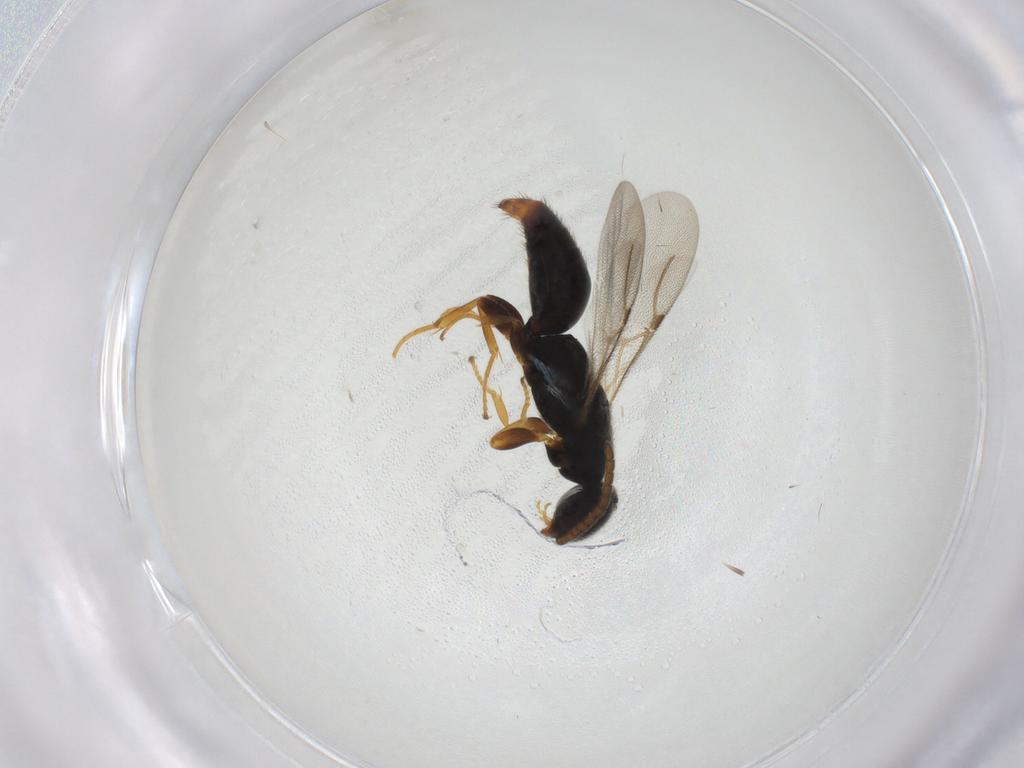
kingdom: Animalia
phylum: Arthropoda
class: Insecta
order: Hymenoptera
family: Bethylidae
